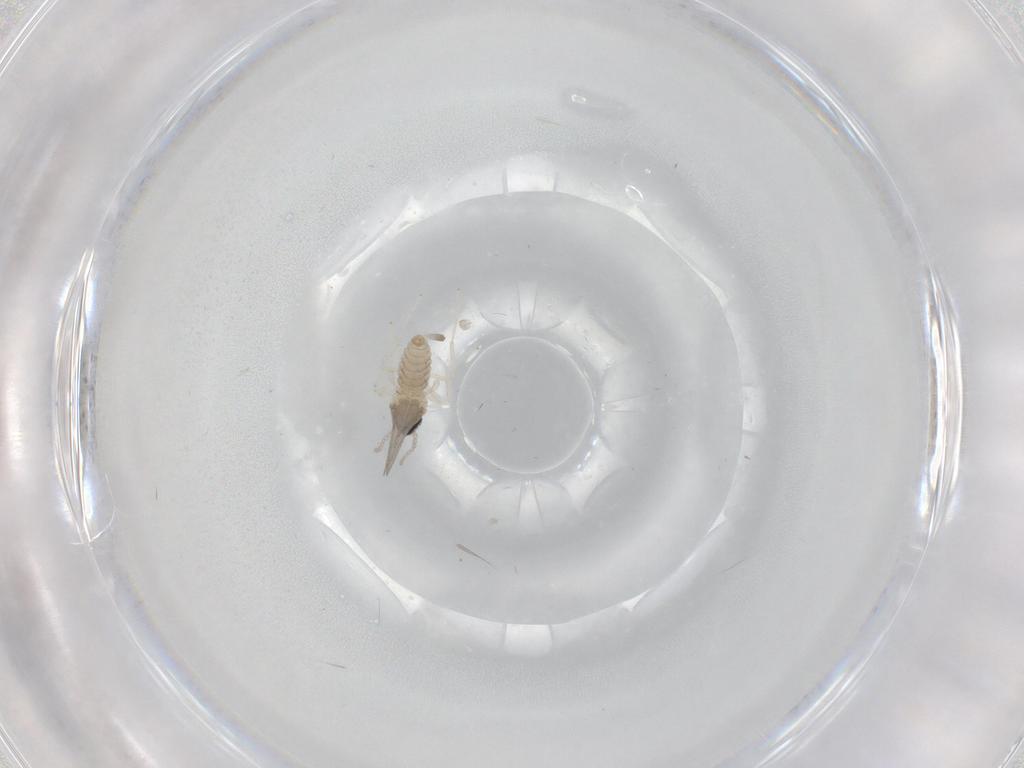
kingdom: Animalia
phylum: Arthropoda
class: Insecta
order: Diptera
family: Cecidomyiidae
